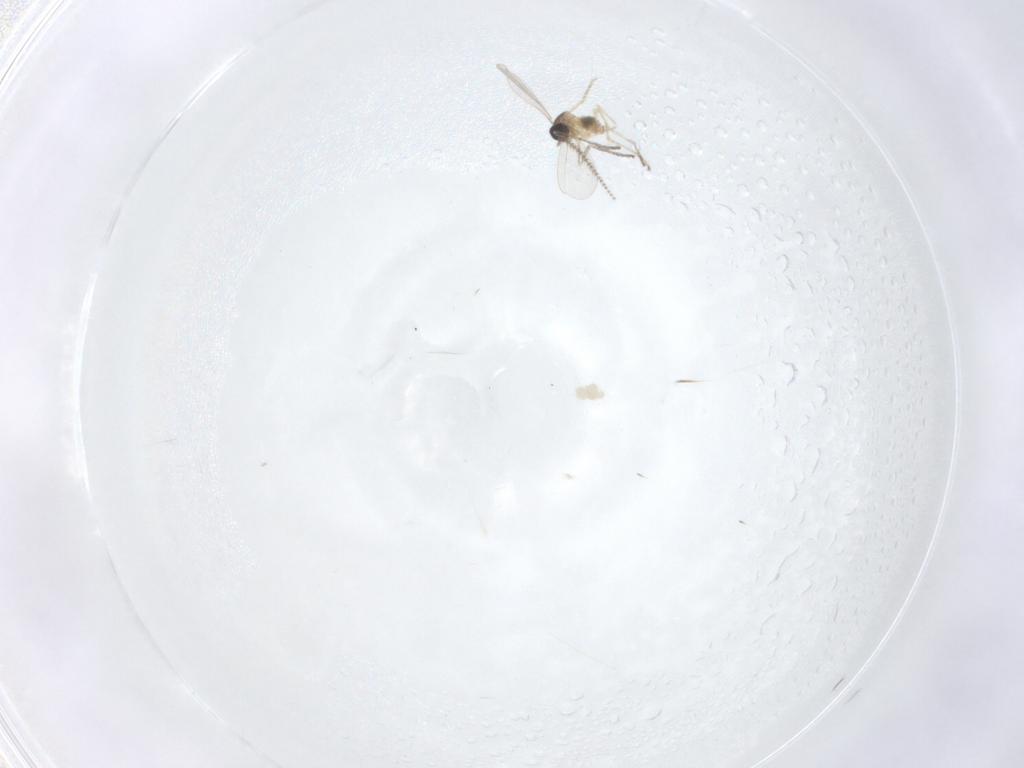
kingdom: Animalia
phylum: Arthropoda
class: Insecta
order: Diptera
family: Cecidomyiidae
